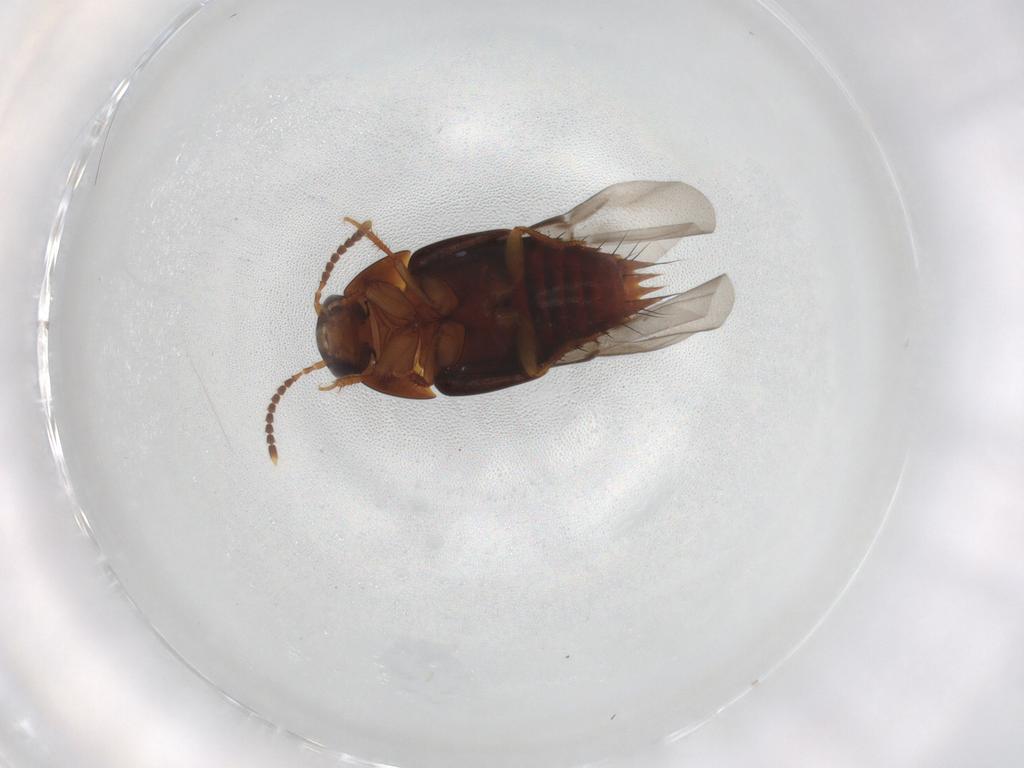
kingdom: Animalia
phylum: Arthropoda
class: Insecta
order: Coleoptera
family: Staphylinidae
